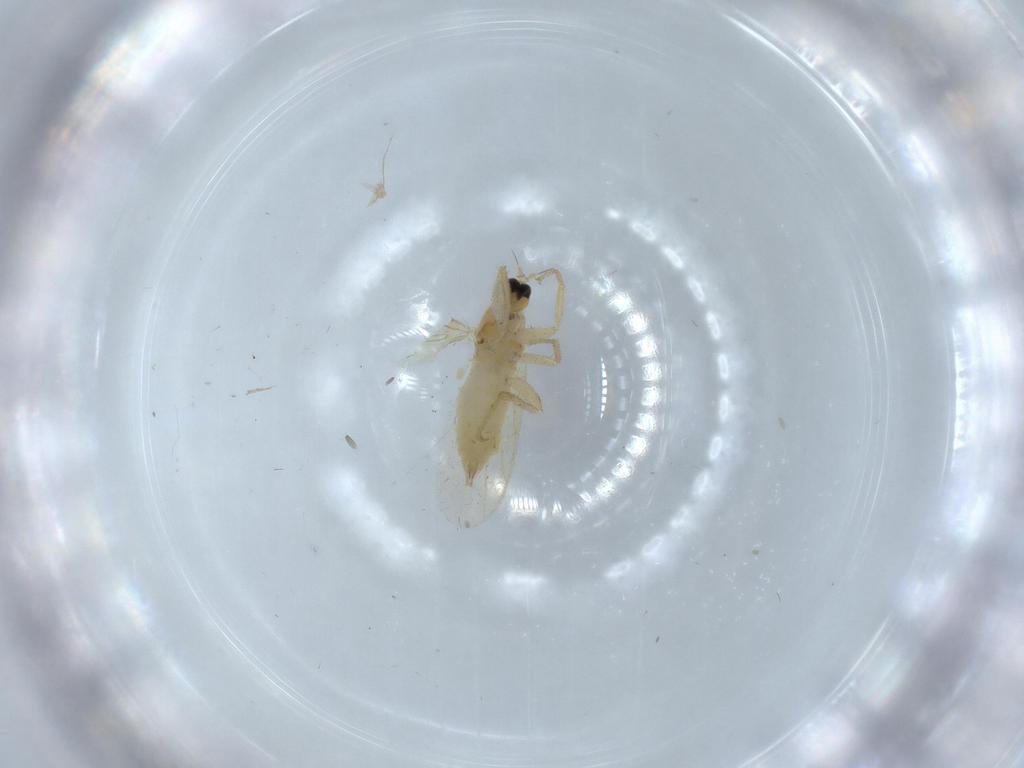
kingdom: Animalia
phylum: Arthropoda
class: Insecta
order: Diptera
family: Hybotidae
